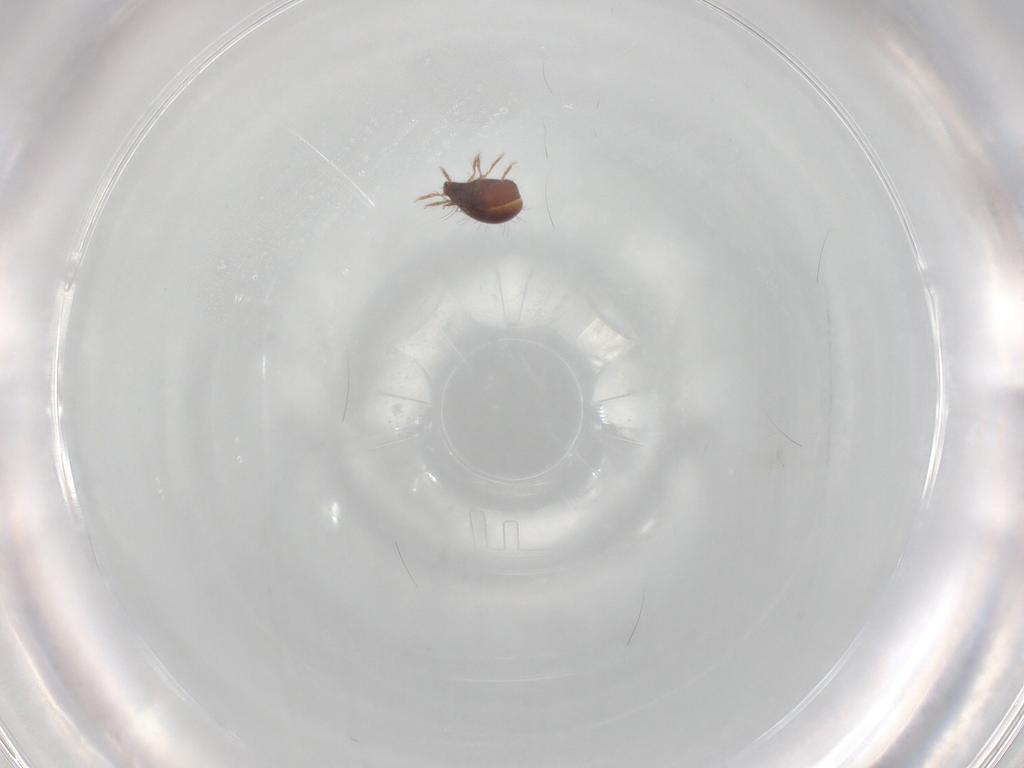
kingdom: Animalia
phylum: Arthropoda
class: Arachnida
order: Sarcoptiformes
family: Humerobatidae
